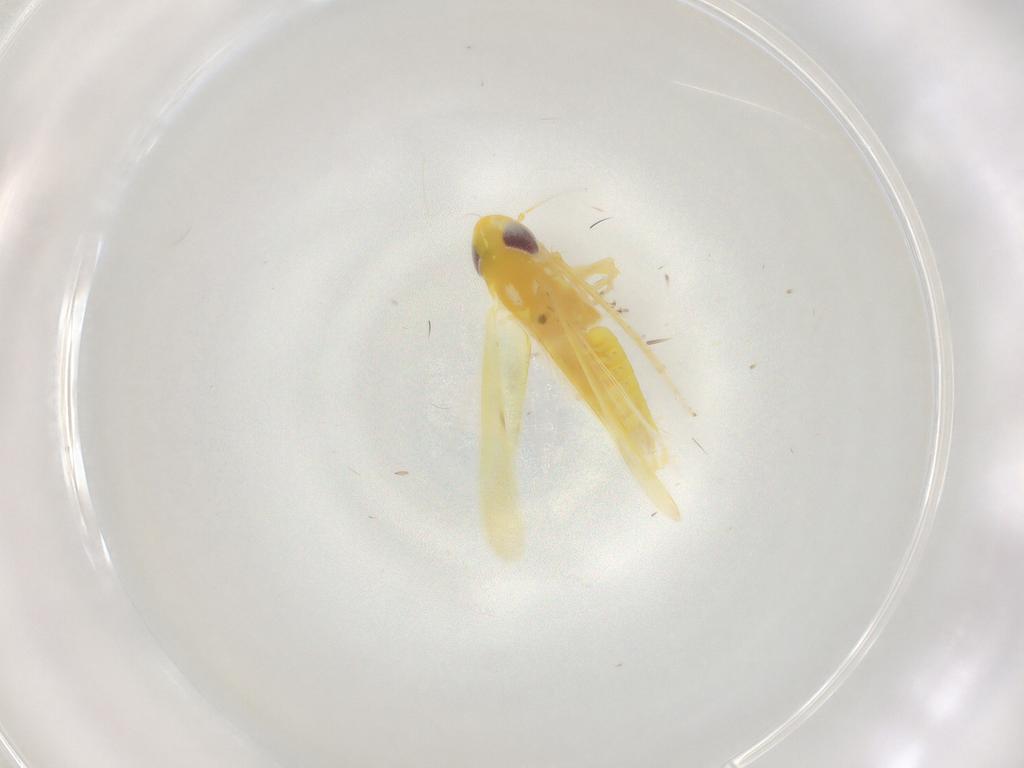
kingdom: Animalia
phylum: Arthropoda
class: Insecta
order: Hemiptera
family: Cicadellidae
